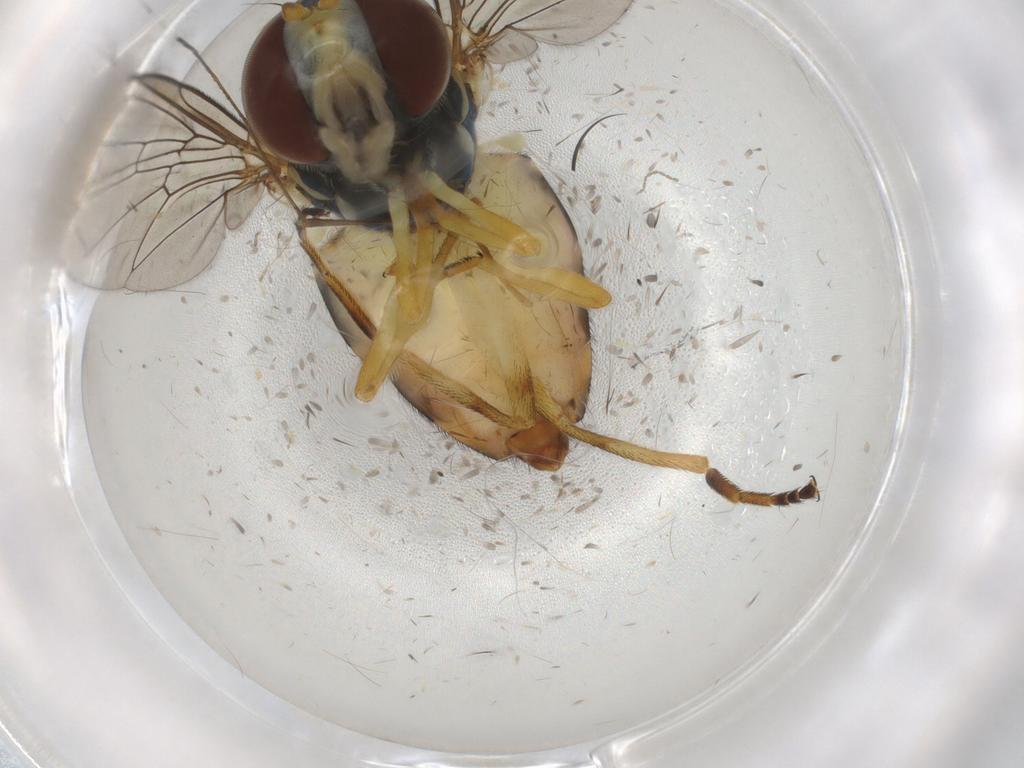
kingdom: Animalia
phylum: Arthropoda
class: Insecta
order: Diptera
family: Syrphidae
